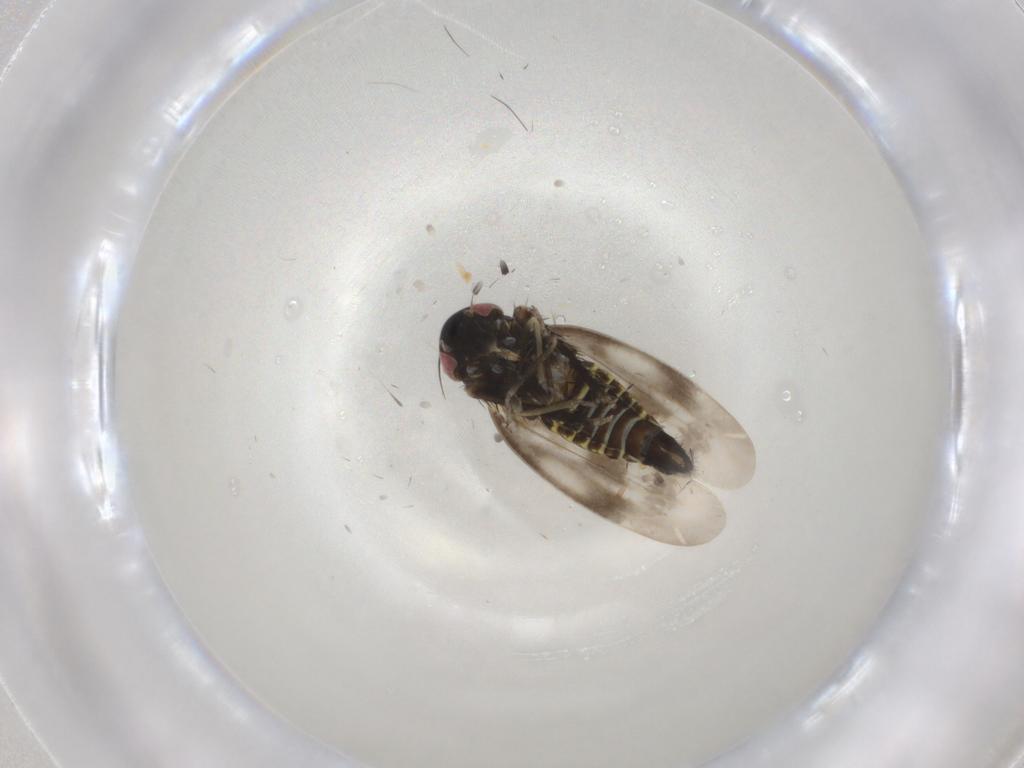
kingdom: Animalia
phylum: Arthropoda
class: Insecta
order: Hemiptera
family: Cicadellidae
